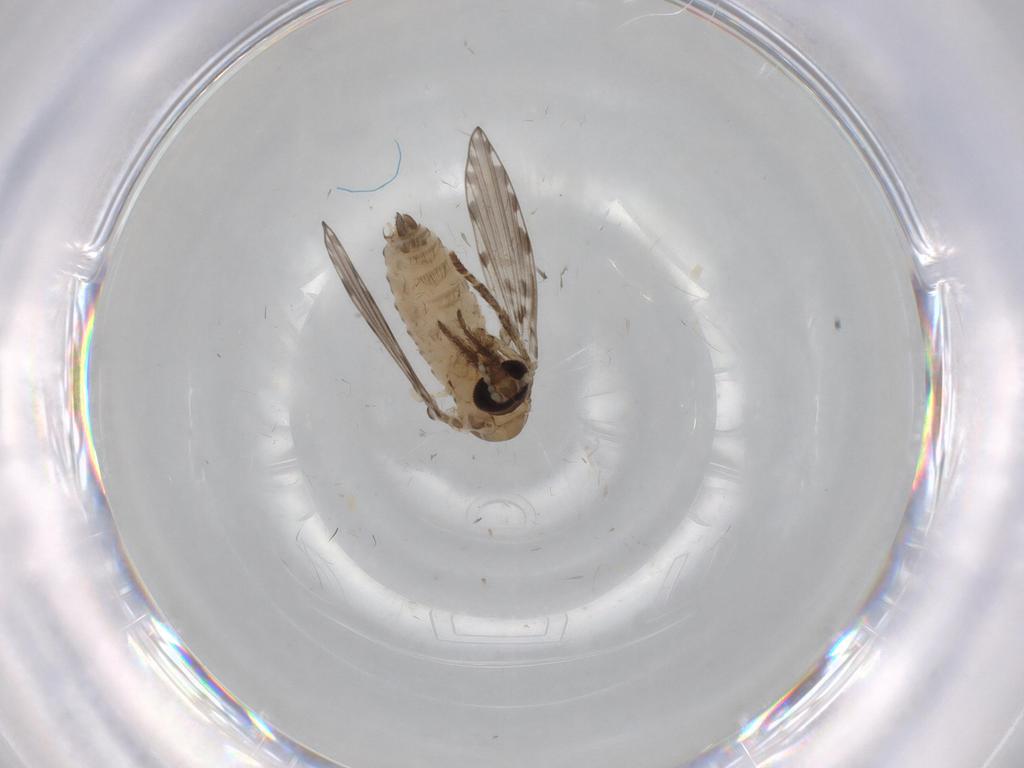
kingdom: Animalia
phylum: Arthropoda
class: Insecta
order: Diptera
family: Psychodidae
